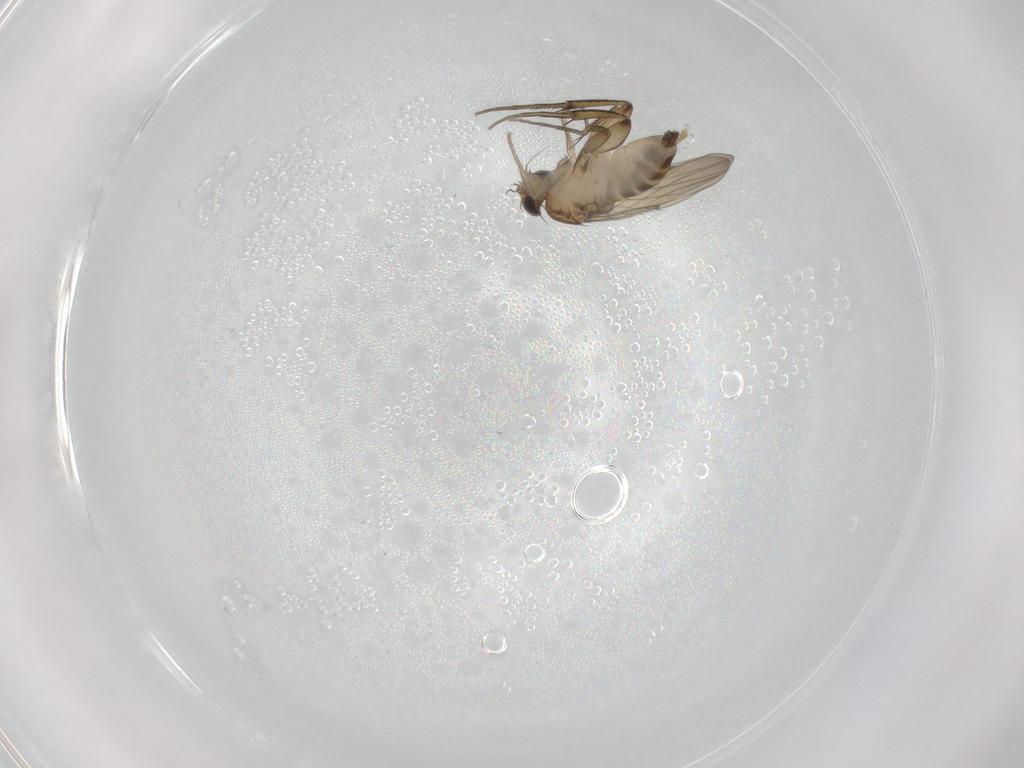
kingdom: Animalia
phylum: Arthropoda
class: Insecta
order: Diptera
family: Phoridae
